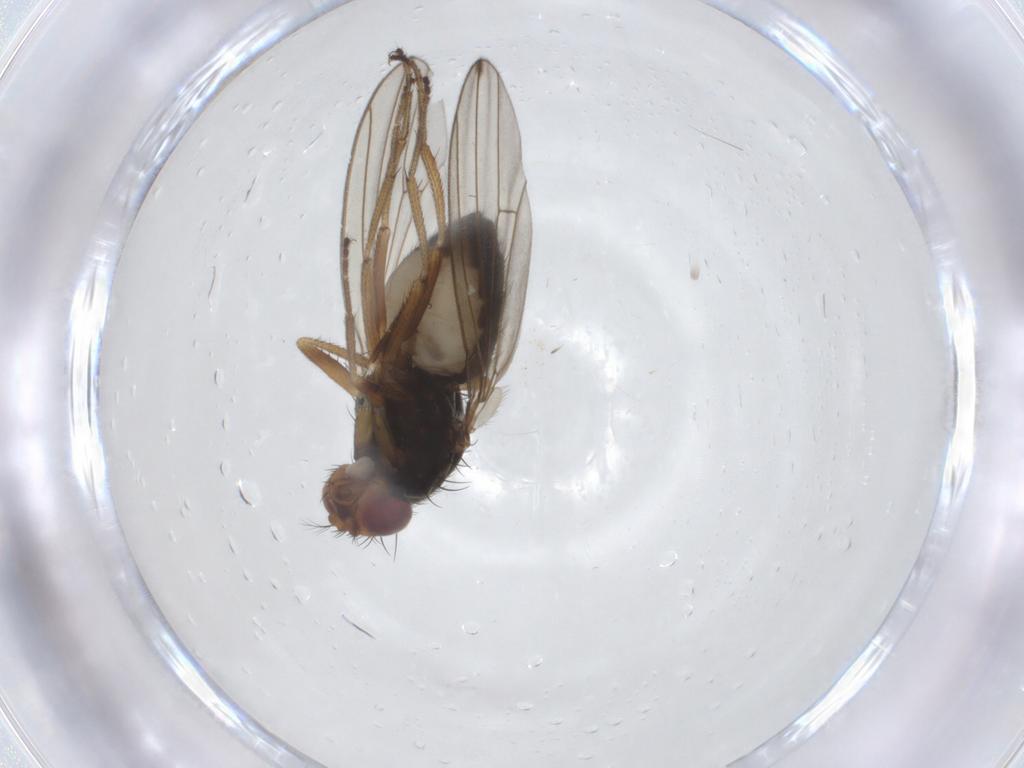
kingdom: Animalia
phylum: Arthropoda
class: Insecta
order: Diptera
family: Drosophilidae
